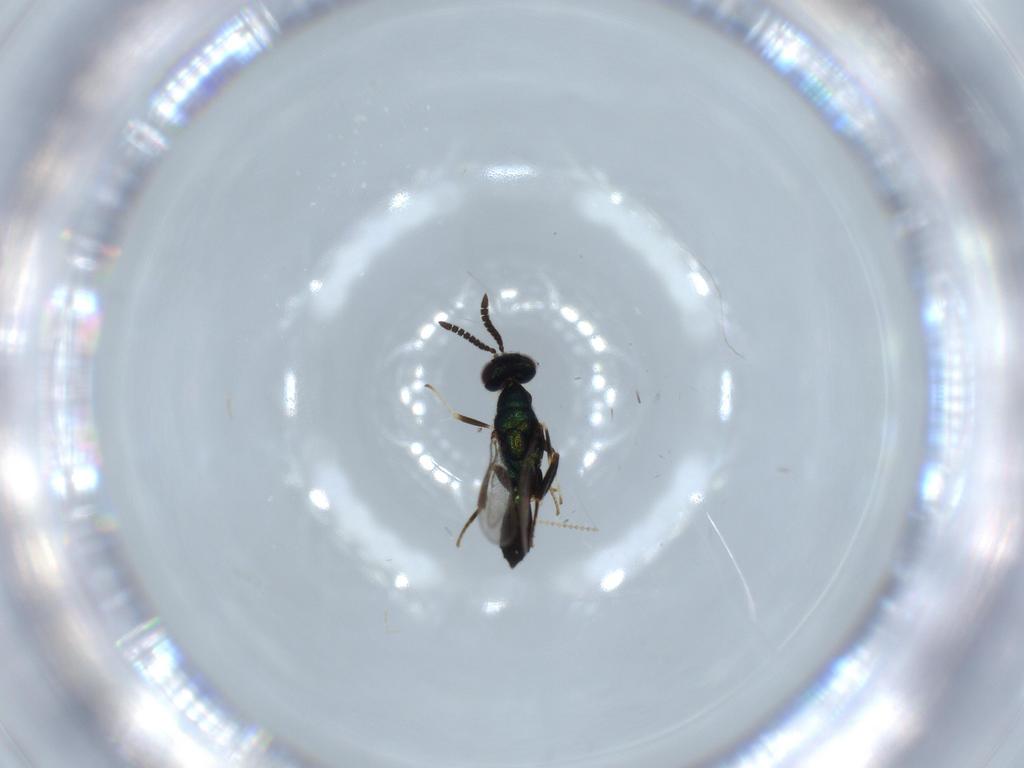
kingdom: Animalia
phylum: Arthropoda
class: Insecta
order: Hymenoptera
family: Cleonyminae
